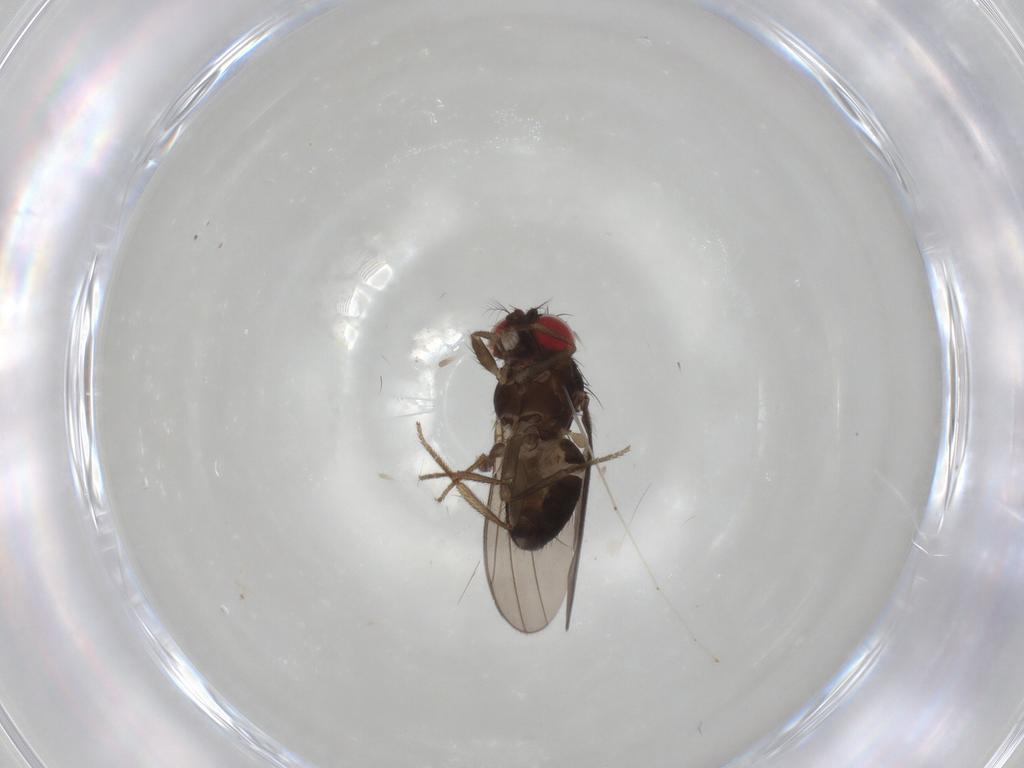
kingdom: Animalia
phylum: Arthropoda
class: Insecta
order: Diptera
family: Drosophilidae
